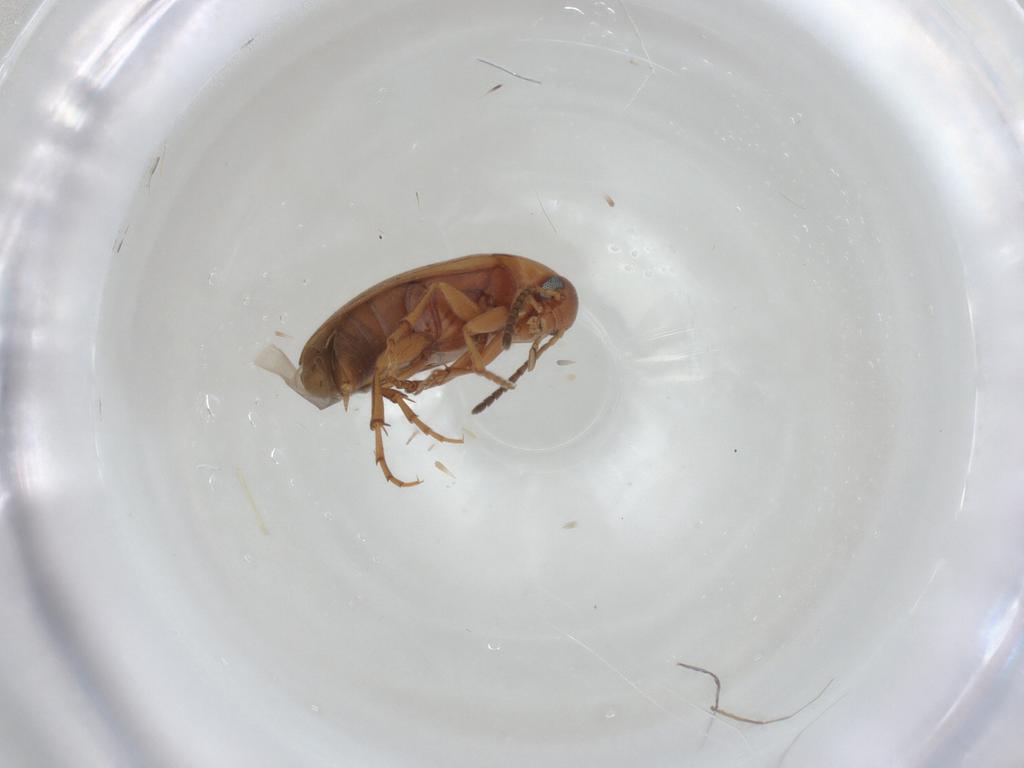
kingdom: Animalia
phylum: Arthropoda
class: Insecta
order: Coleoptera
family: Scraptiidae
